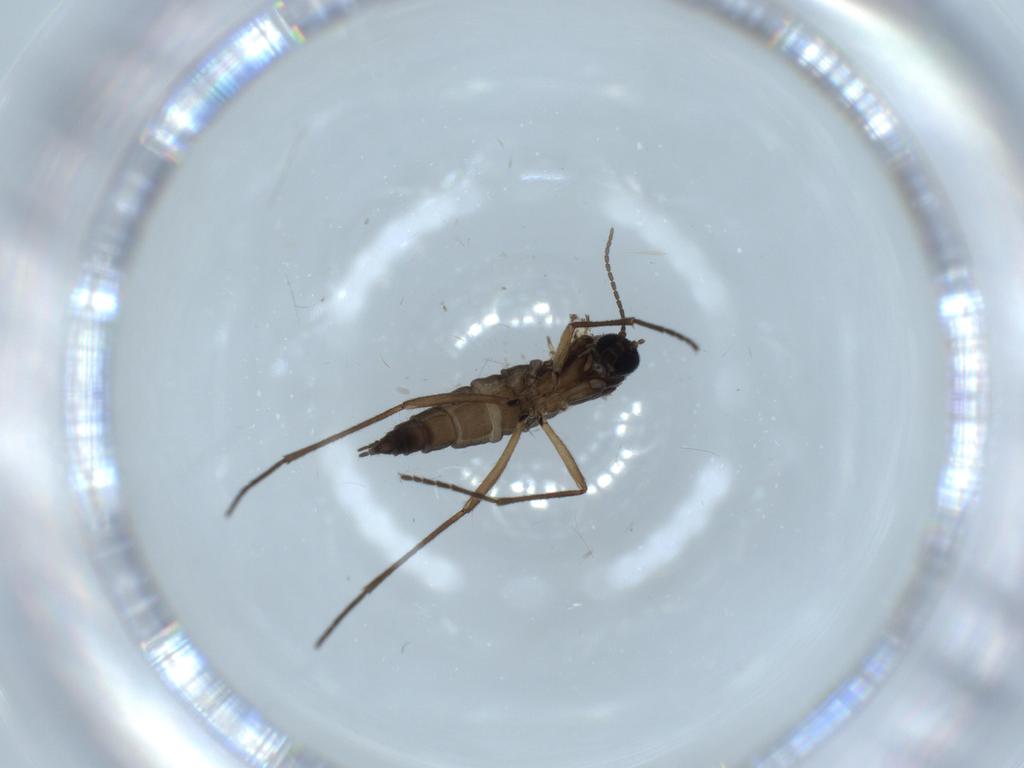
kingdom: Animalia
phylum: Arthropoda
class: Insecta
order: Diptera
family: Sciaridae
